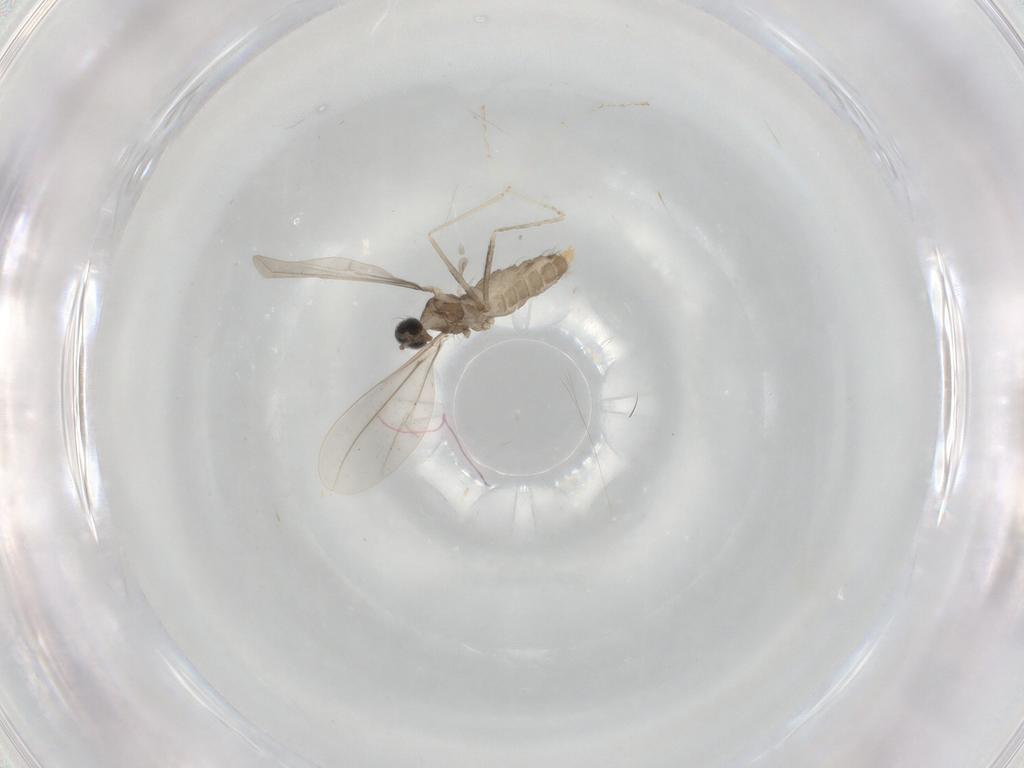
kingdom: Animalia
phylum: Arthropoda
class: Insecta
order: Diptera
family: Cecidomyiidae
